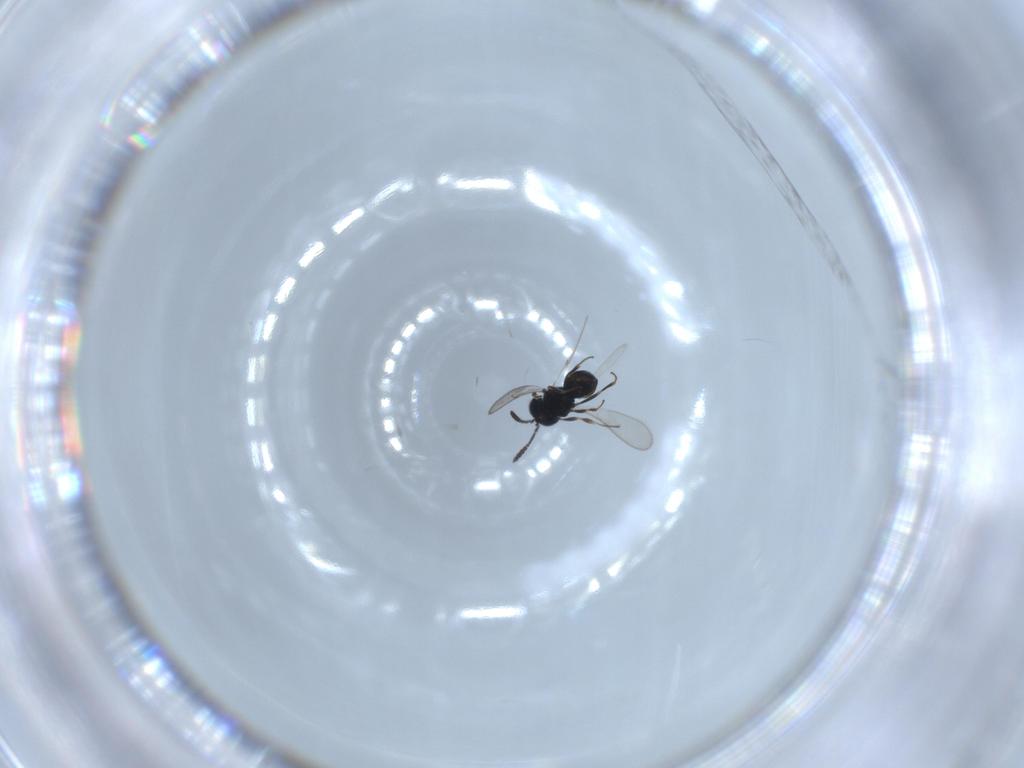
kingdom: Animalia
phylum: Arthropoda
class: Insecta
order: Hymenoptera
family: Scelionidae
